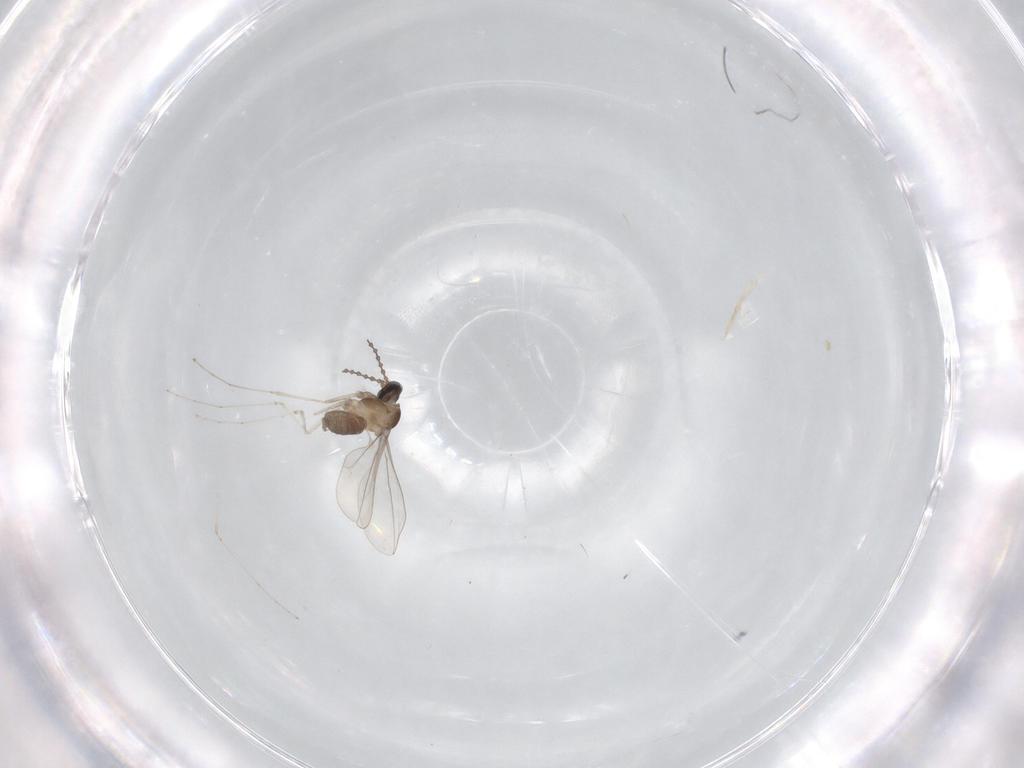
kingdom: Animalia
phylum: Arthropoda
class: Insecta
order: Diptera
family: Cecidomyiidae
